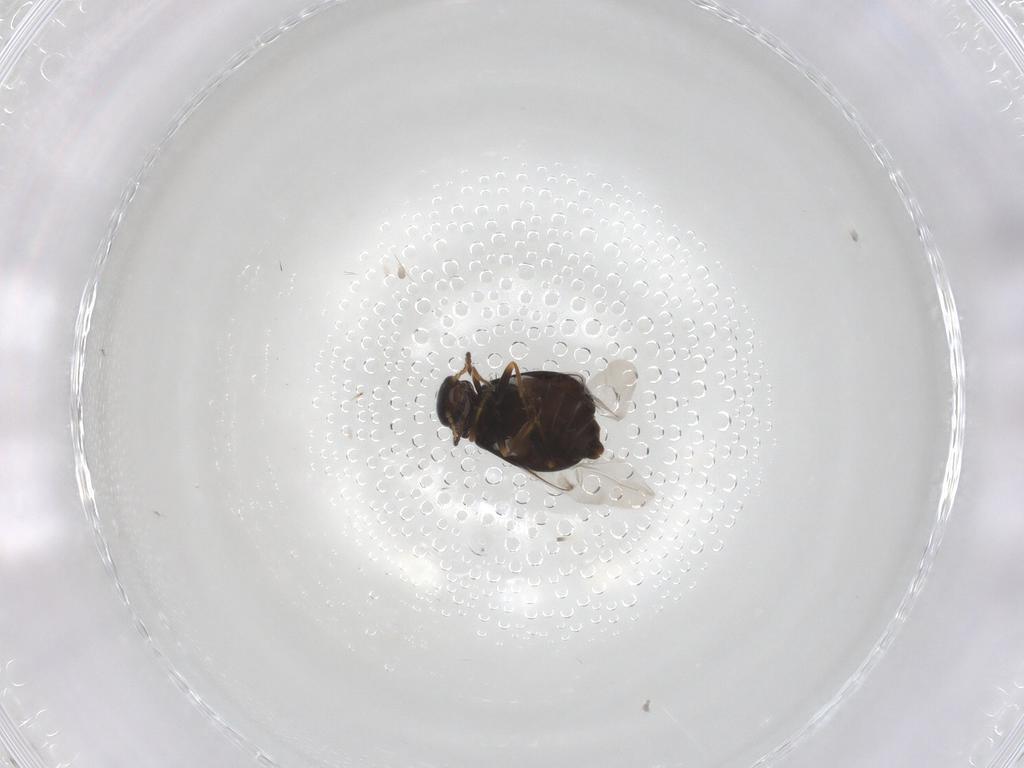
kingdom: Animalia
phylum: Arthropoda
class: Insecta
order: Coleoptera
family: Melyridae
